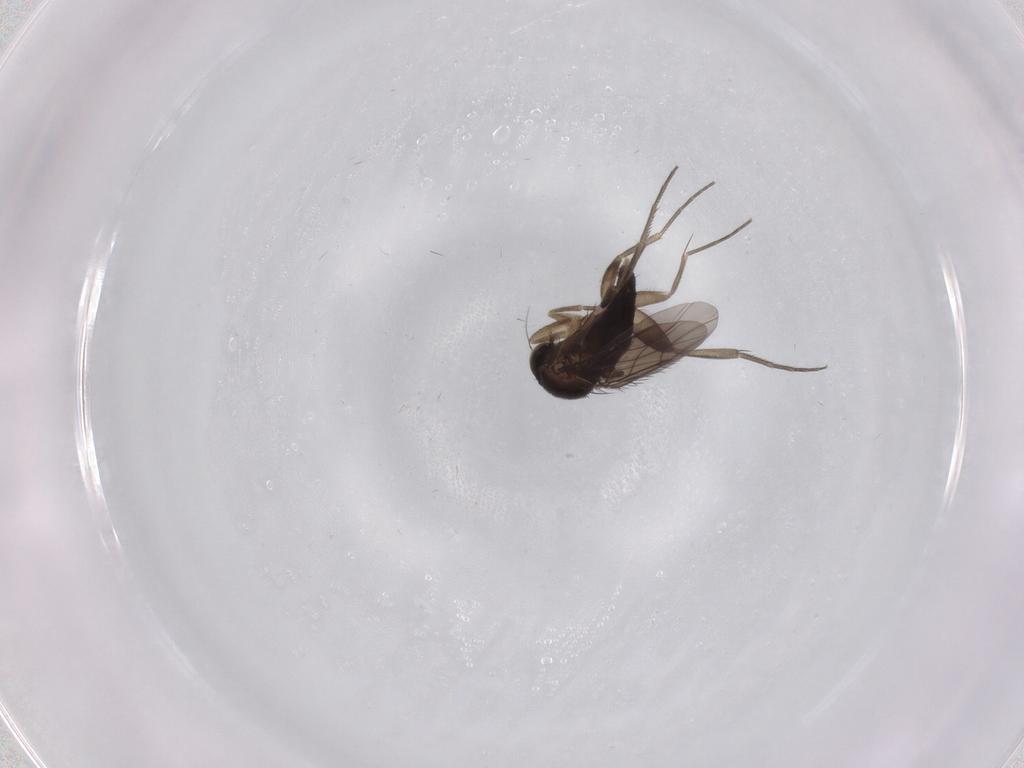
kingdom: Animalia
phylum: Arthropoda
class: Insecta
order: Diptera
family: Phoridae
